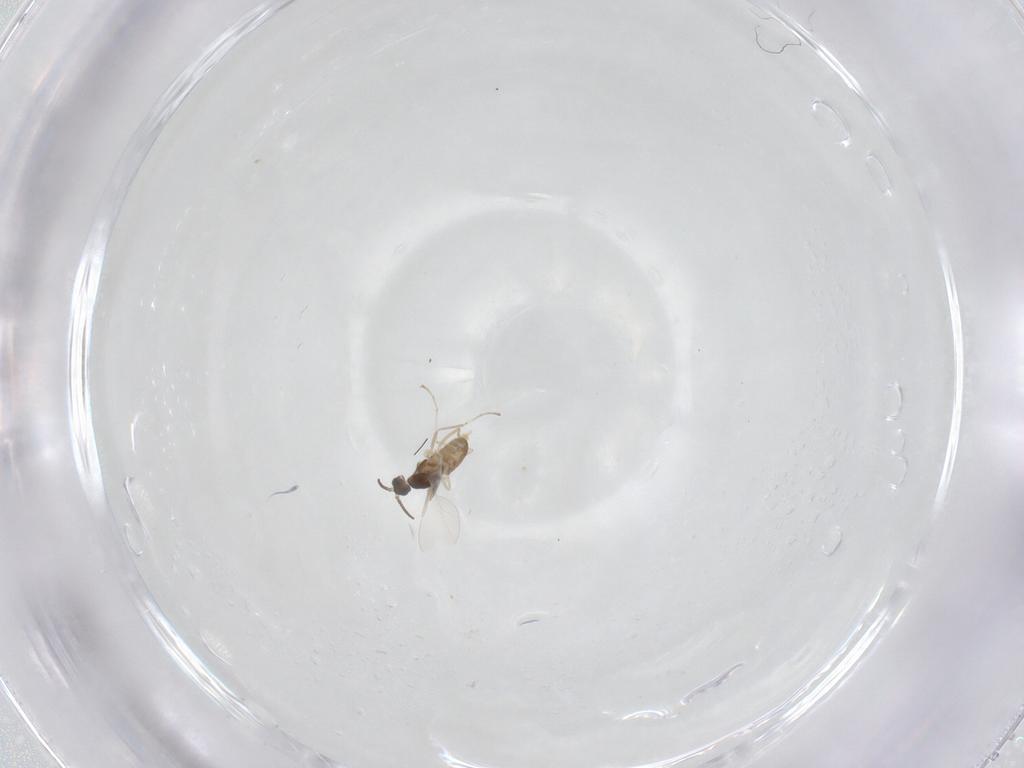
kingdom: Animalia
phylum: Arthropoda
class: Insecta
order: Diptera
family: Cecidomyiidae
